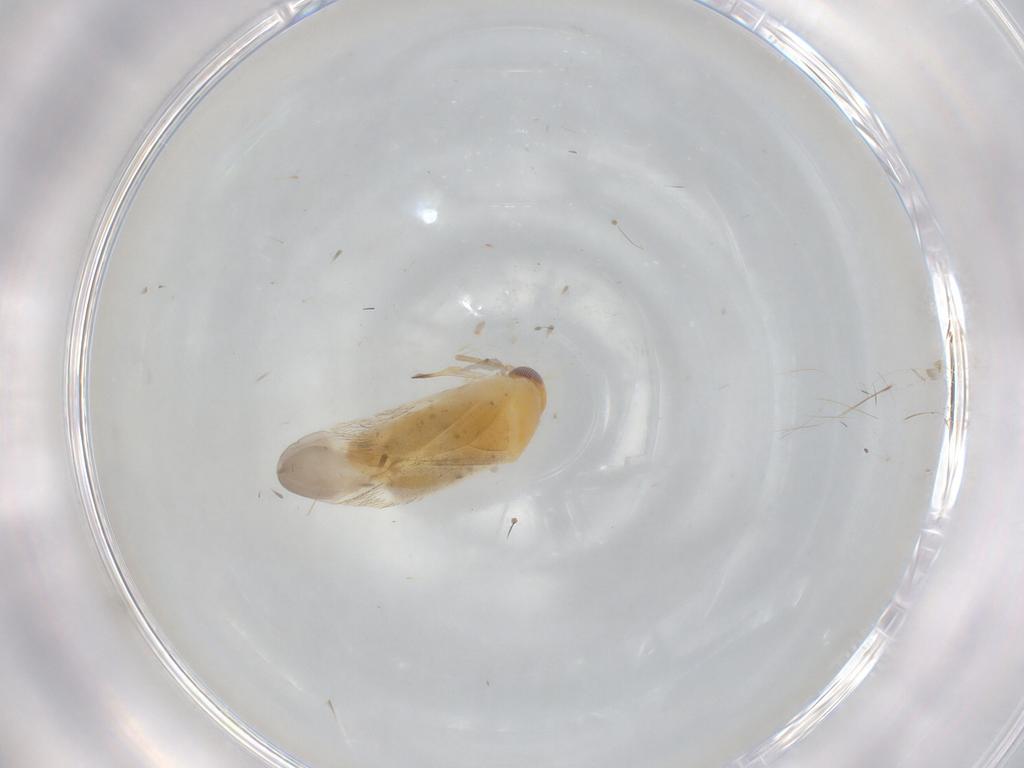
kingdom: Animalia
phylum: Arthropoda
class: Insecta
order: Hemiptera
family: Miridae
